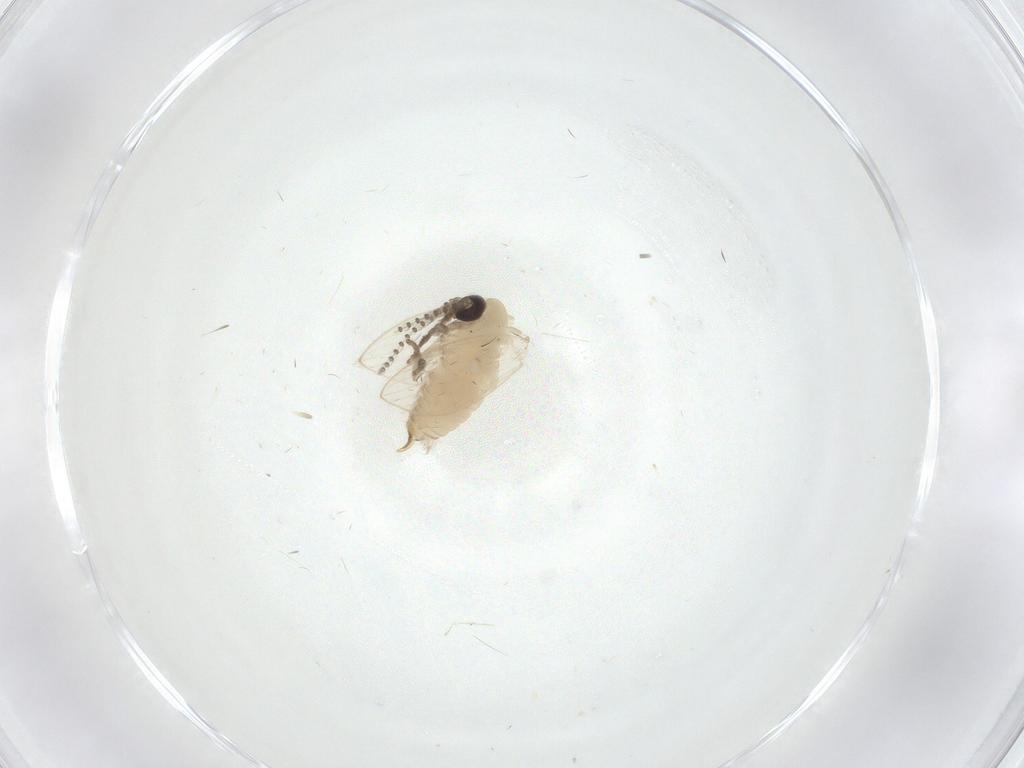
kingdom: Animalia
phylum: Arthropoda
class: Insecta
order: Diptera
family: Psychodidae
